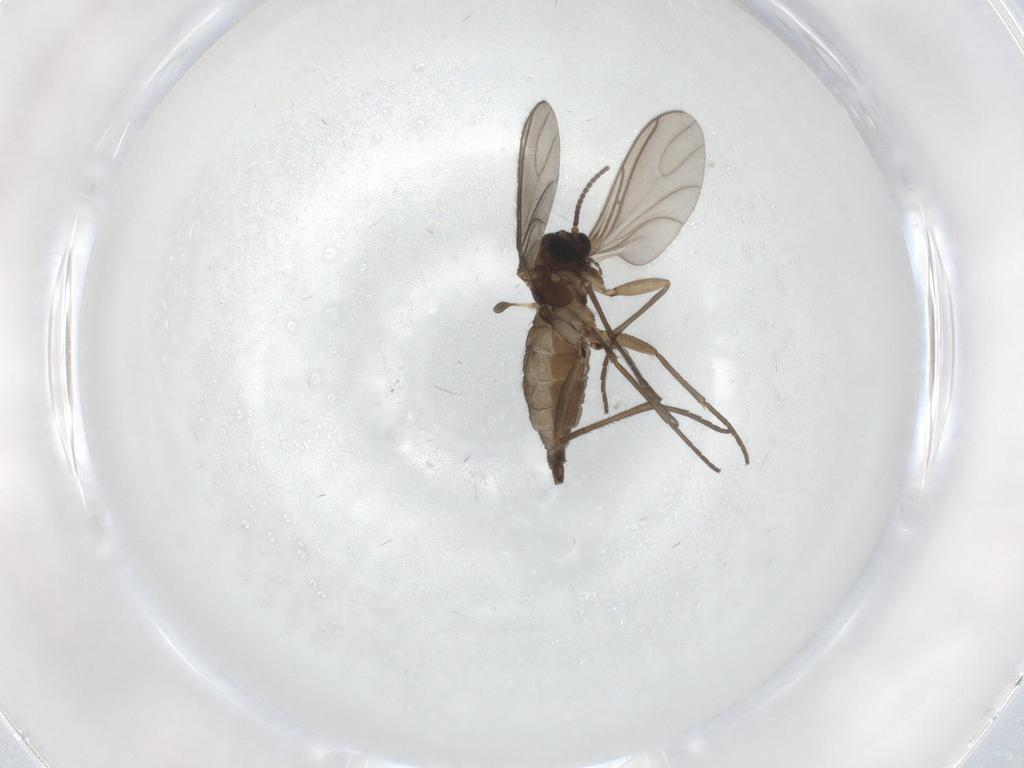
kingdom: Animalia
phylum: Arthropoda
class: Insecta
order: Diptera
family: Sciaridae
